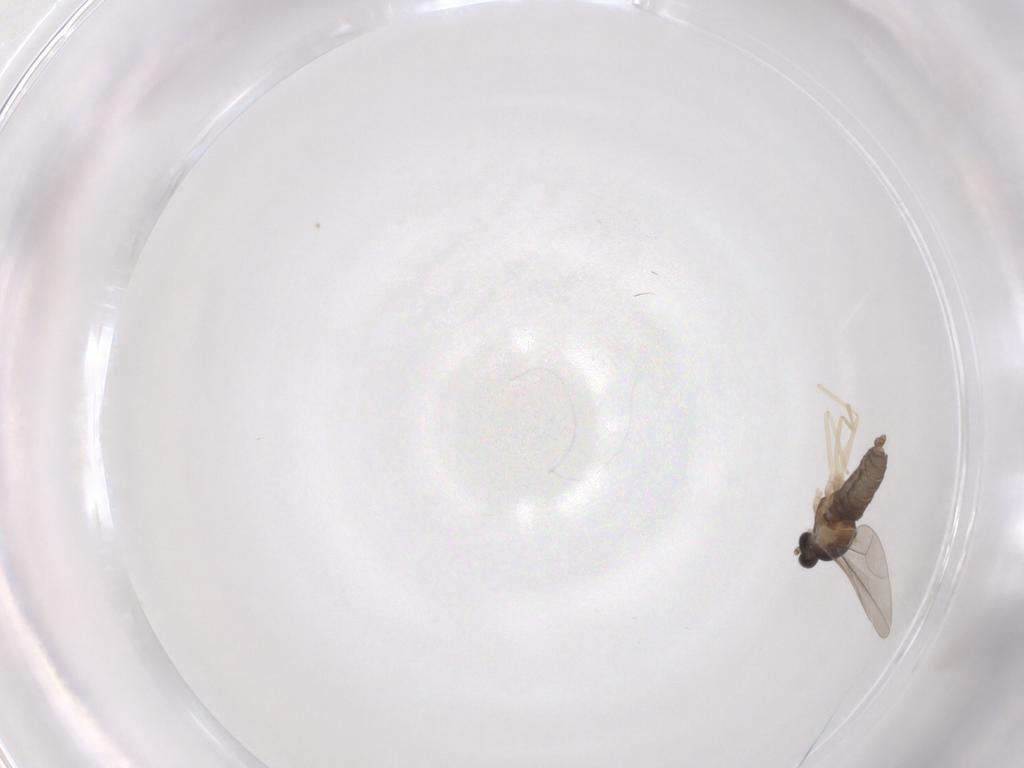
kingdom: Animalia
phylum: Arthropoda
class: Insecta
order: Diptera
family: Cecidomyiidae
